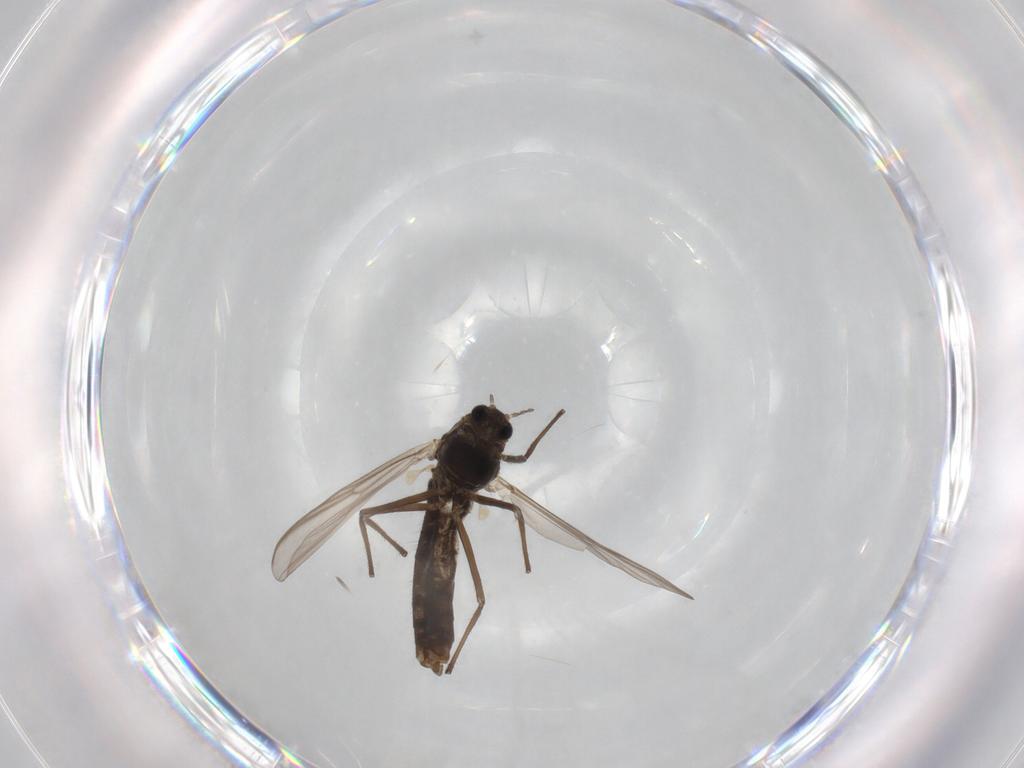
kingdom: Animalia
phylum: Arthropoda
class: Insecta
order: Diptera
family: Chironomidae
